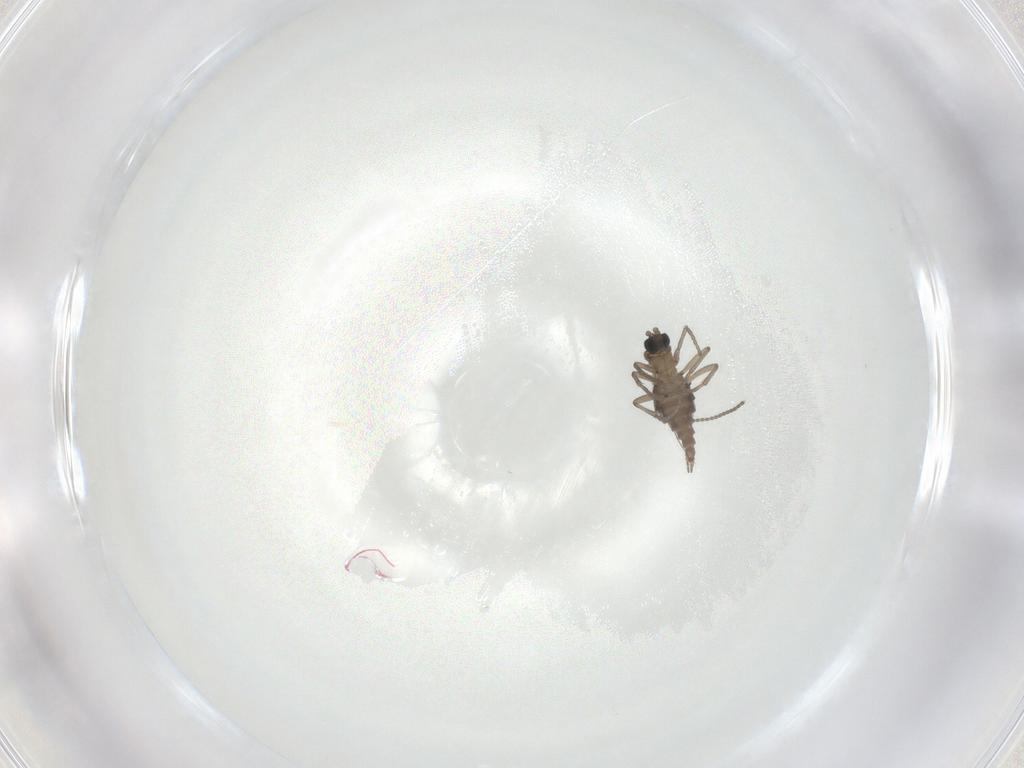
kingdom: Animalia
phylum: Arthropoda
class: Insecta
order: Diptera
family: Sciaridae
